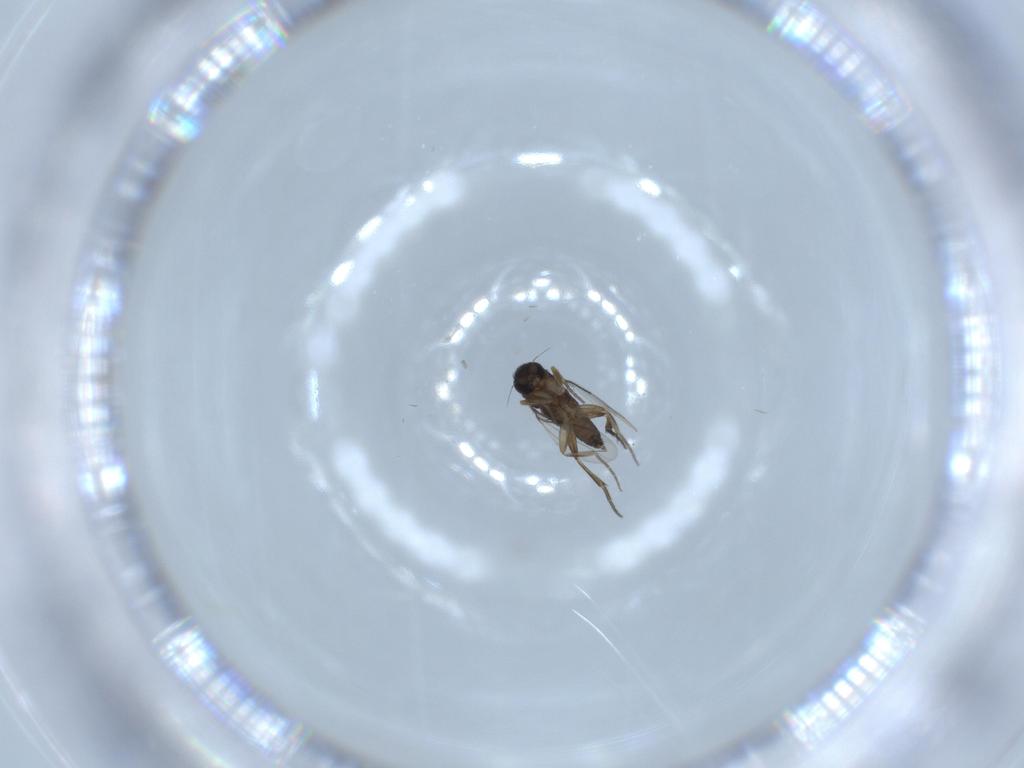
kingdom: Animalia
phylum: Arthropoda
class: Insecta
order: Diptera
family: Phoridae
